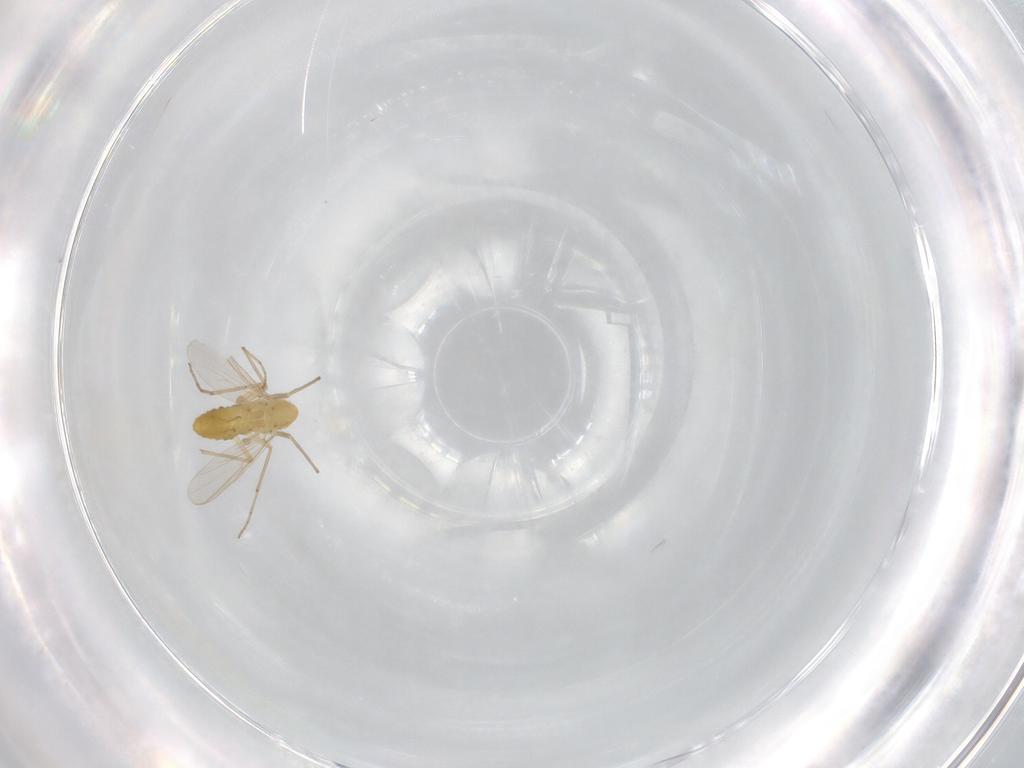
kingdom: Animalia
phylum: Arthropoda
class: Insecta
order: Diptera
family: Chironomidae
